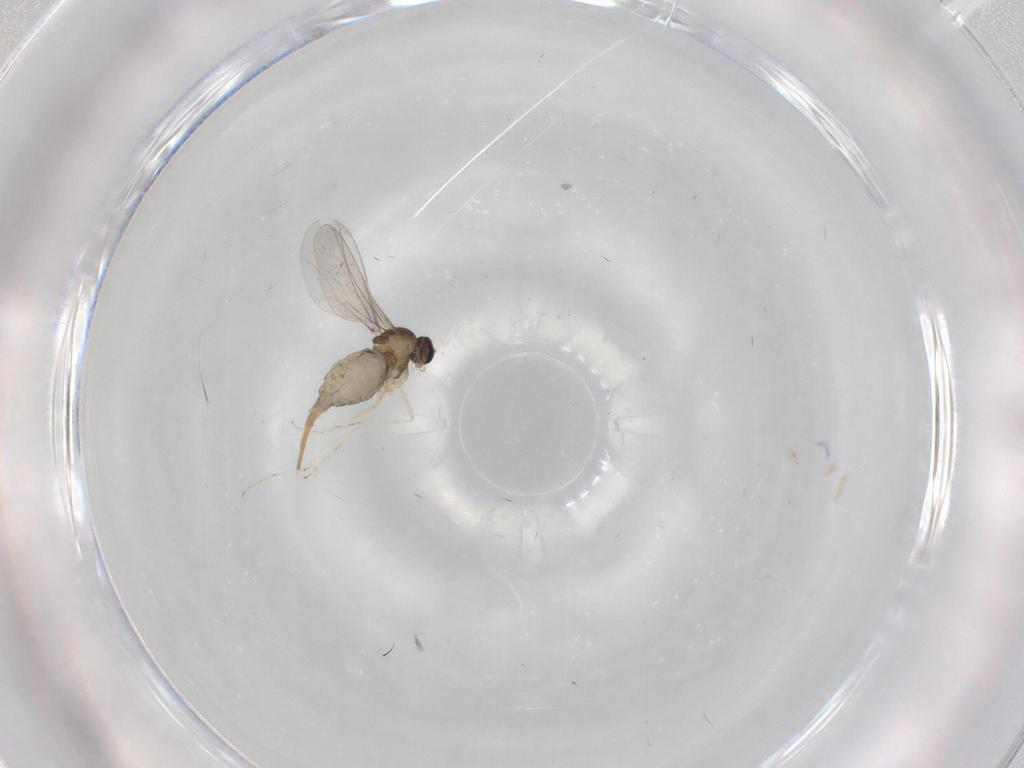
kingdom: Animalia
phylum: Arthropoda
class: Insecta
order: Diptera
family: Cecidomyiidae
